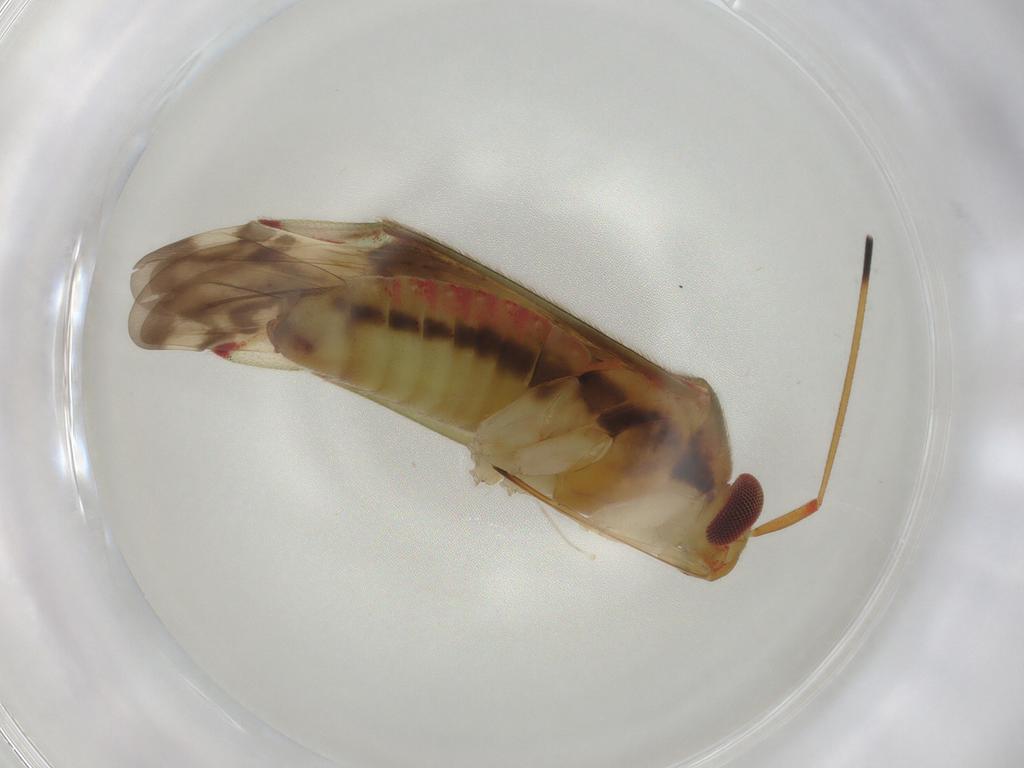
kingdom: Animalia
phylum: Arthropoda
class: Insecta
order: Diptera
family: Cecidomyiidae
